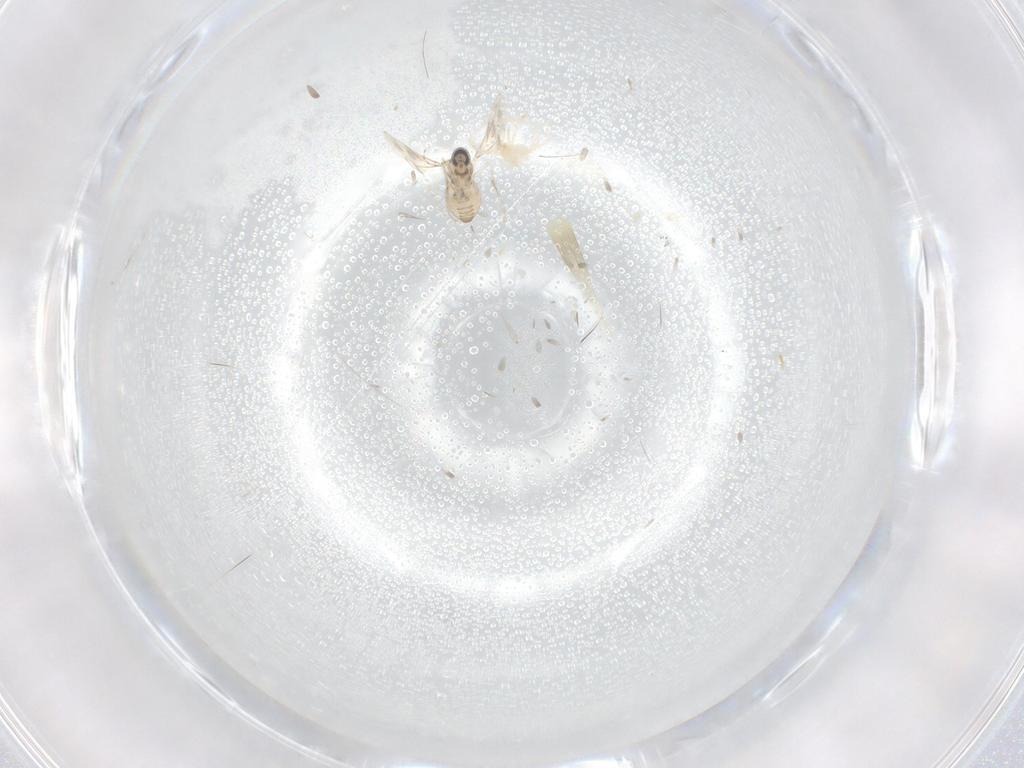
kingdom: Animalia
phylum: Arthropoda
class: Insecta
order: Diptera
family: Cecidomyiidae
